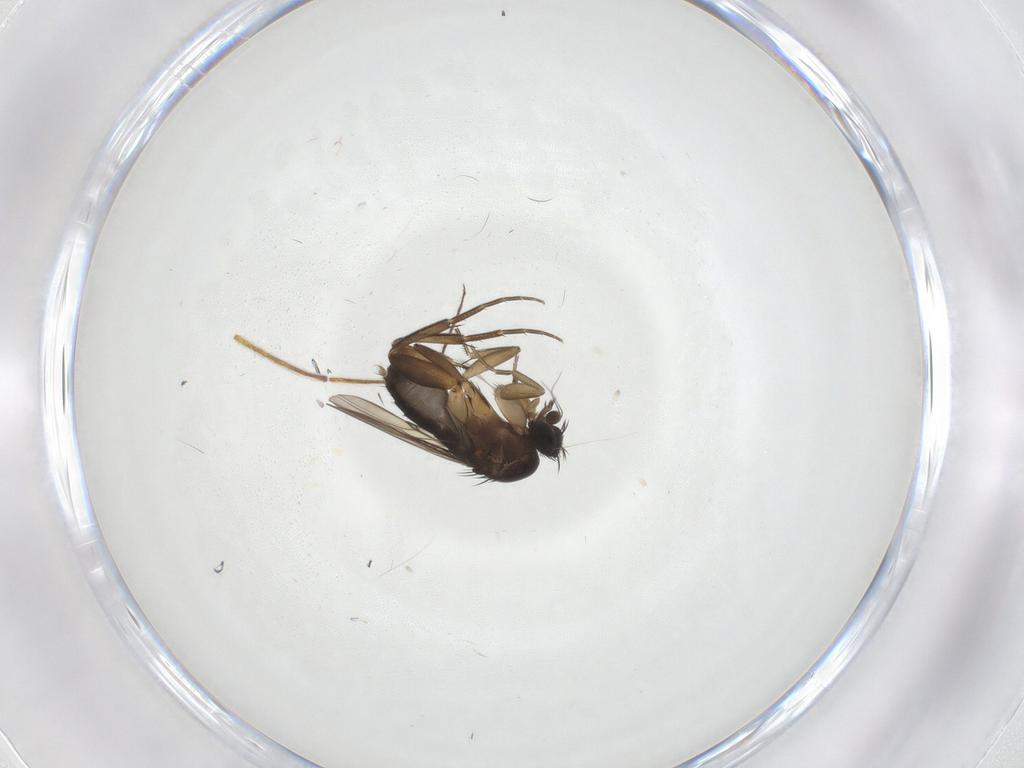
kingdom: Animalia
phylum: Arthropoda
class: Insecta
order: Diptera
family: Phoridae
